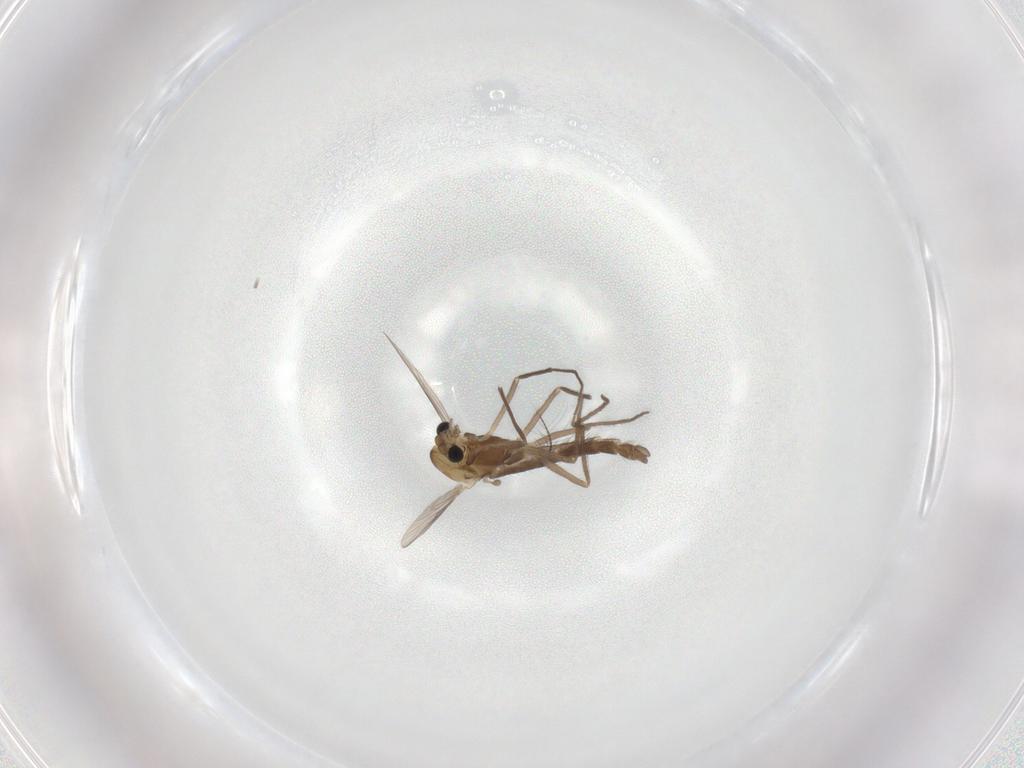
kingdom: Animalia
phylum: Arthropoda
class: Insecta
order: Diptera
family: Chironomidae
